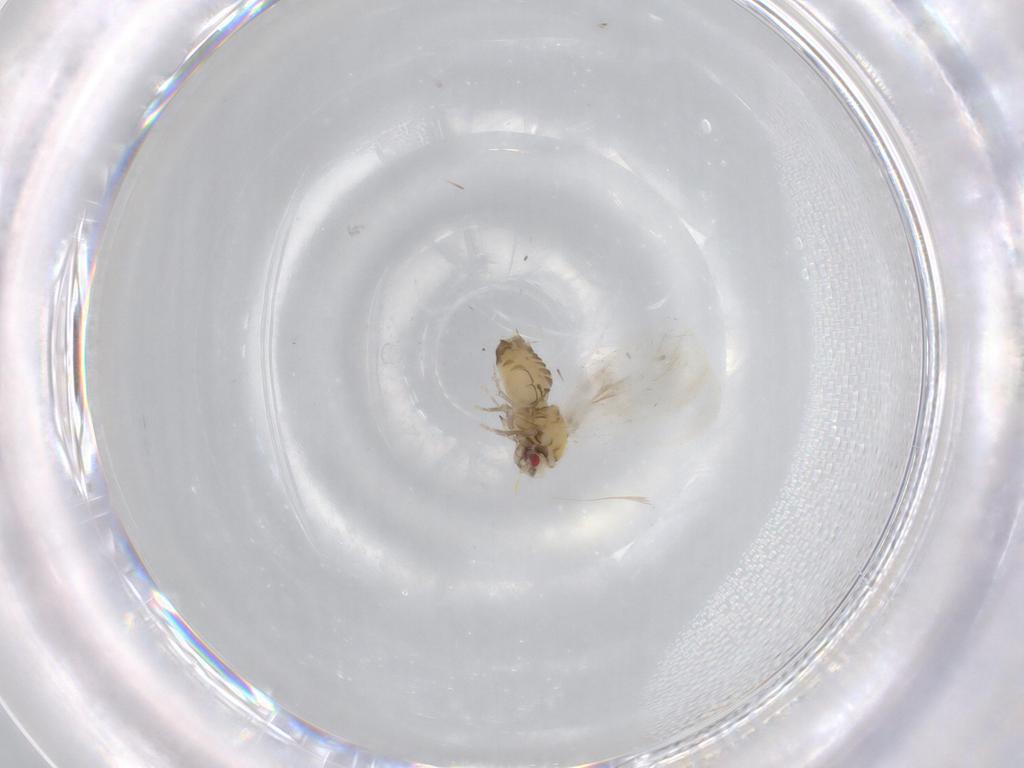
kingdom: Animalia
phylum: Arthropoda
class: Insecta
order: Hemiptera
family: Aleyrodidae
